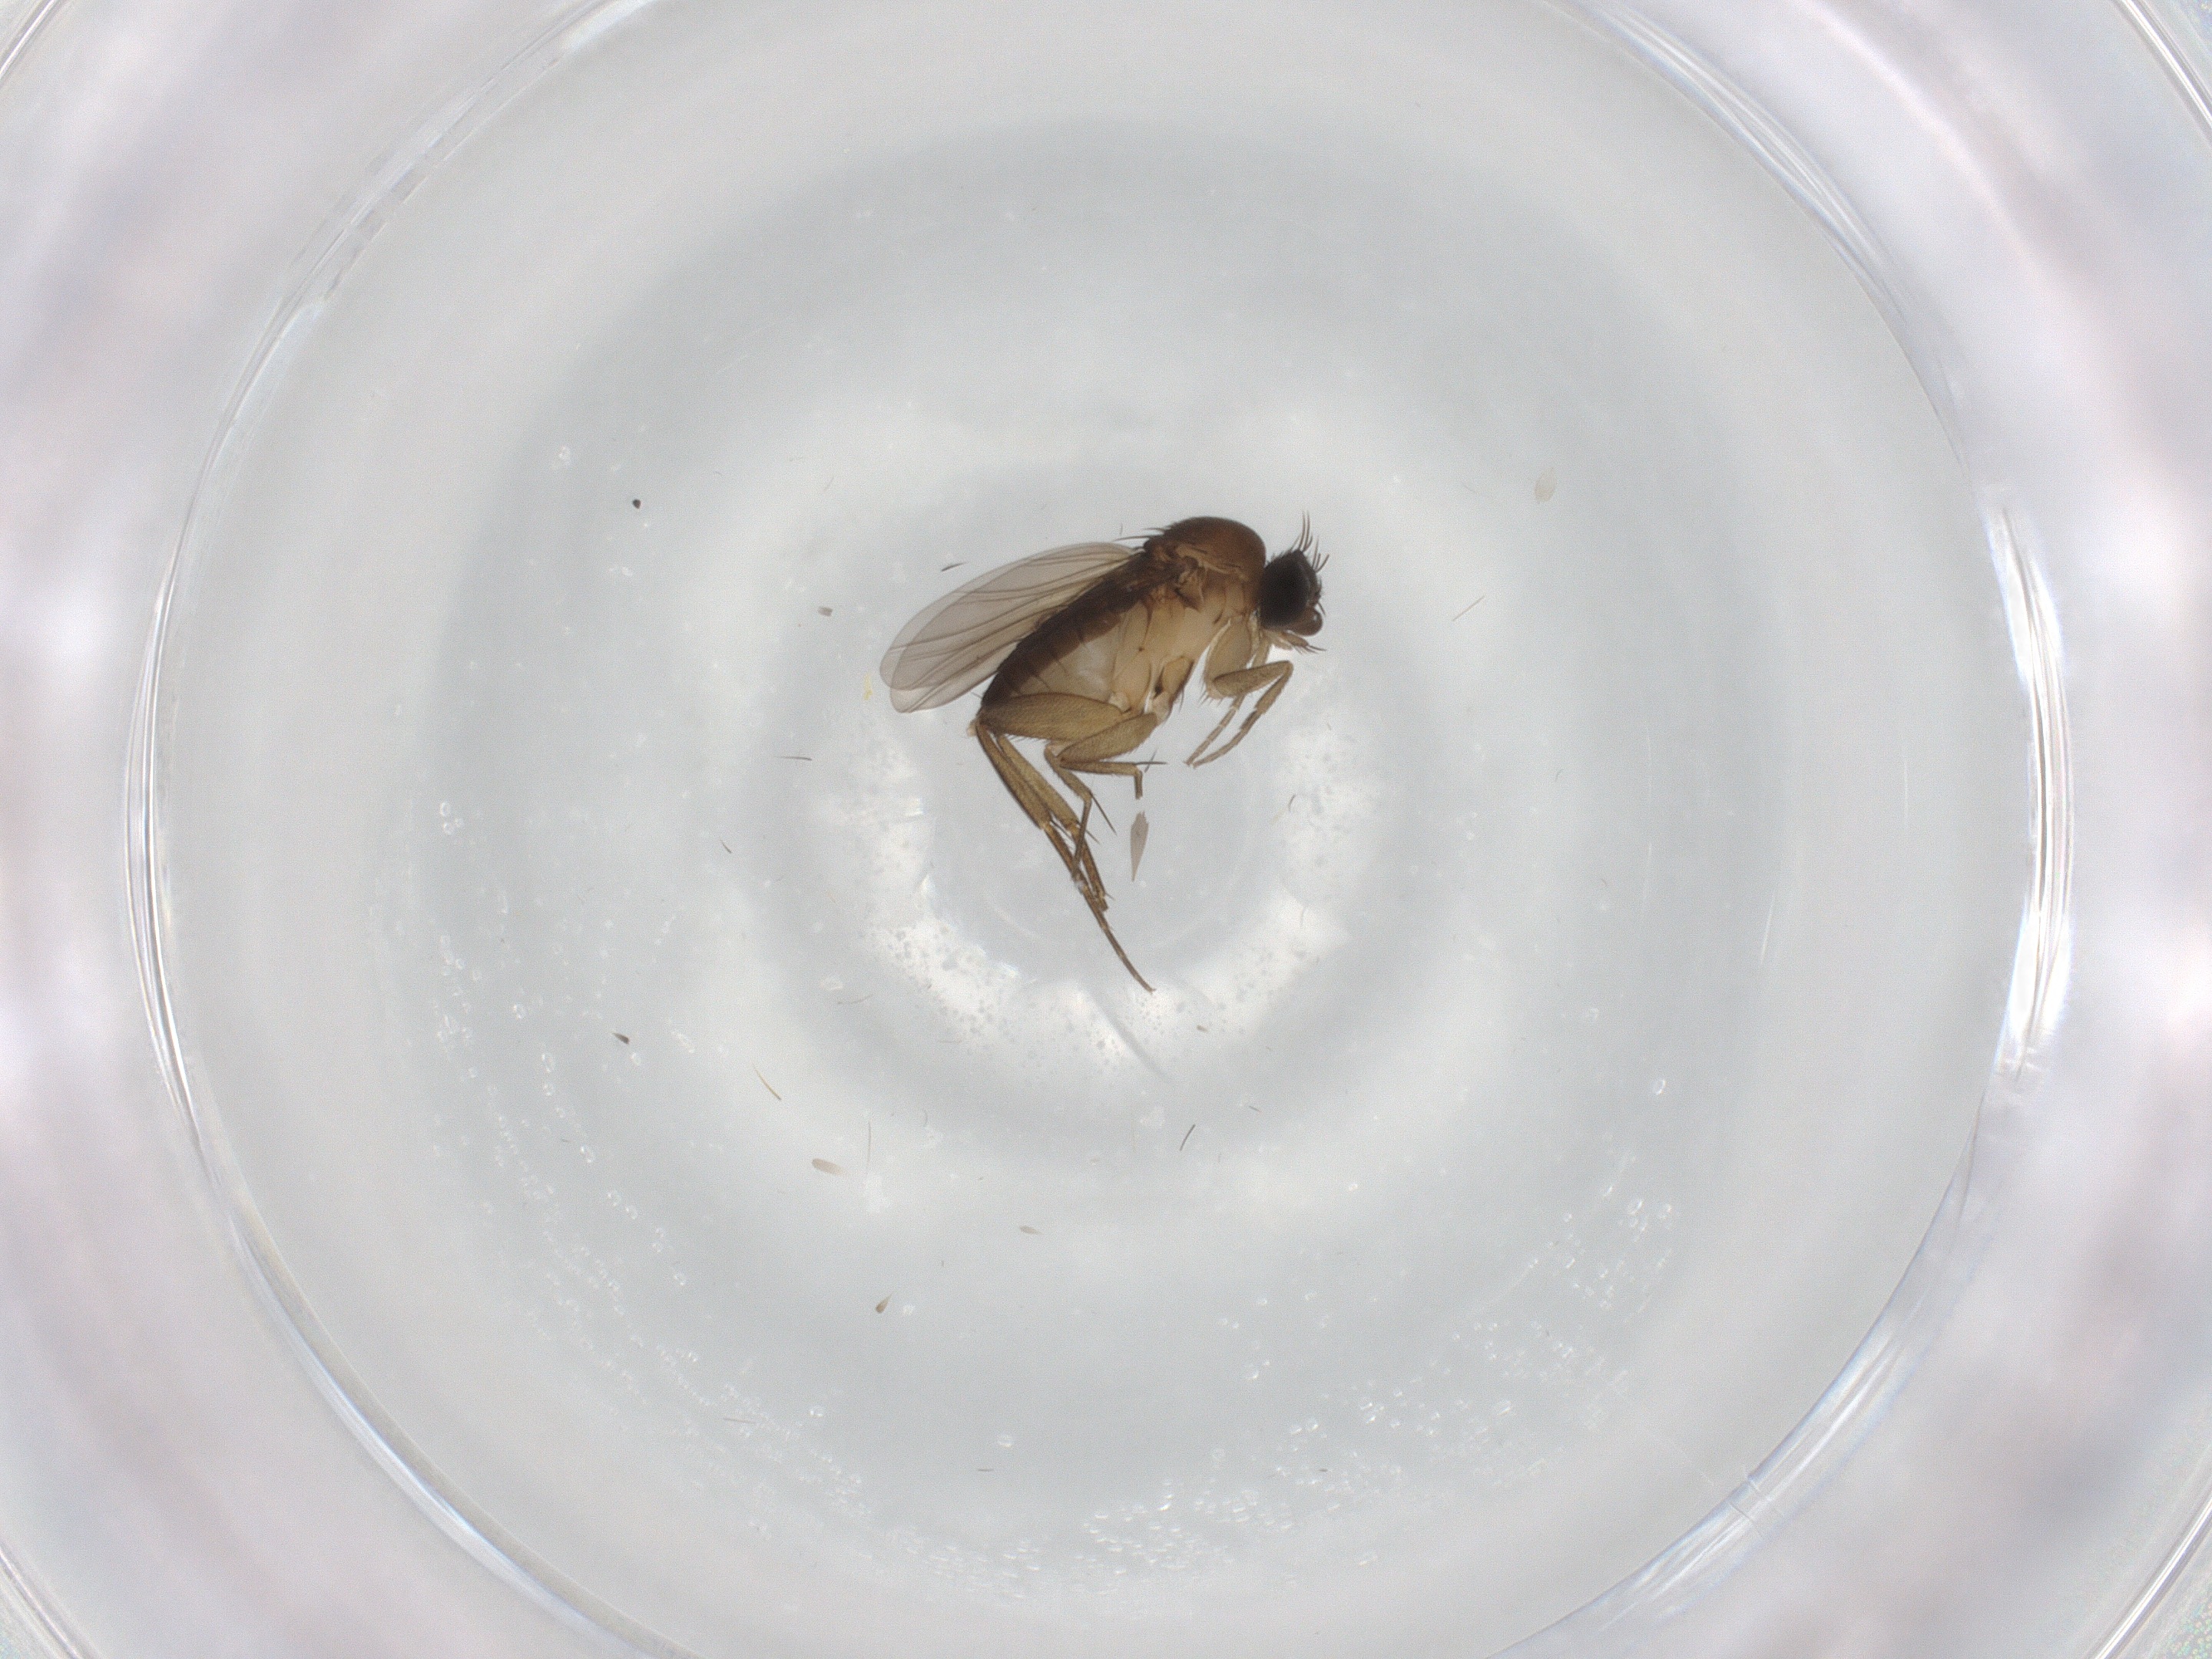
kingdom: Animalia
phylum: Arthropoda
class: Insecta
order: Diptera
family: Phoridae
